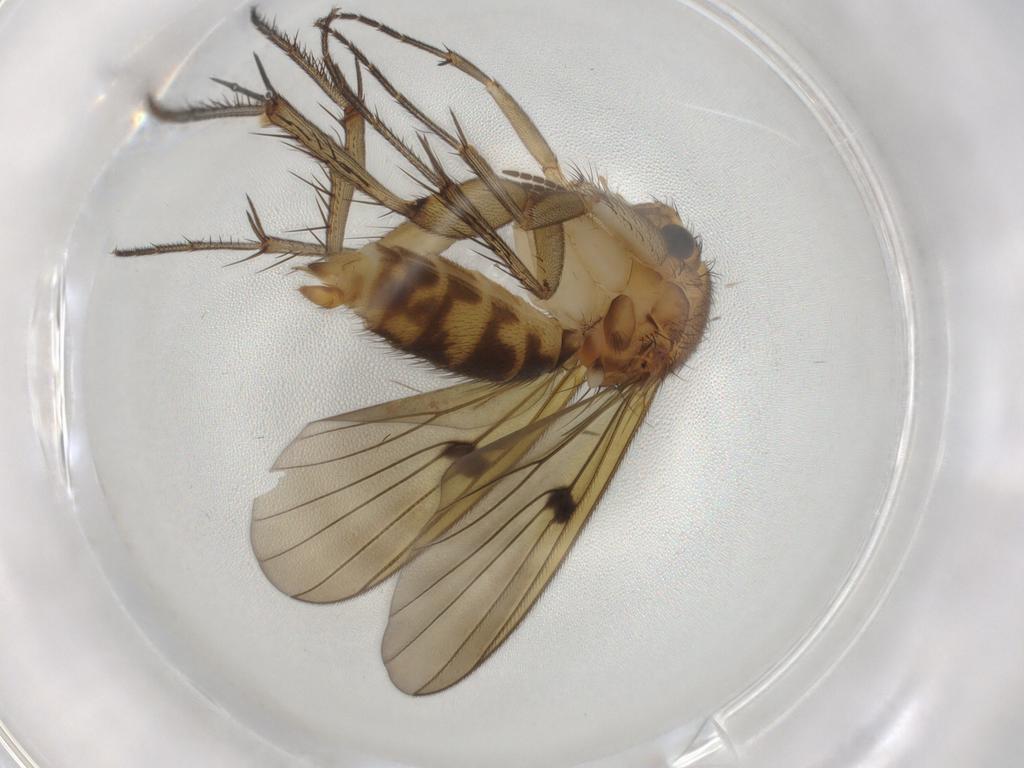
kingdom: Animalia
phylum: Arthropoda
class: Insecta
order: Diptera
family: Mycetophilidae
